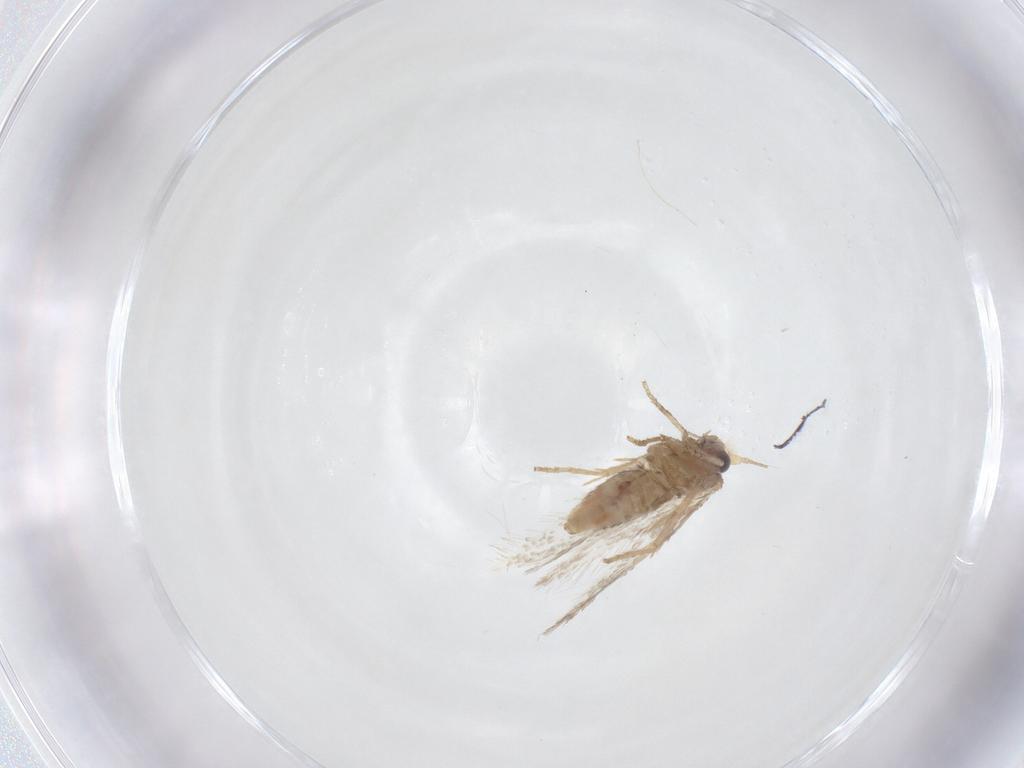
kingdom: Animalia
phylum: Arthropoda
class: Insecta
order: Lepidoptera
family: Nepticulidae
